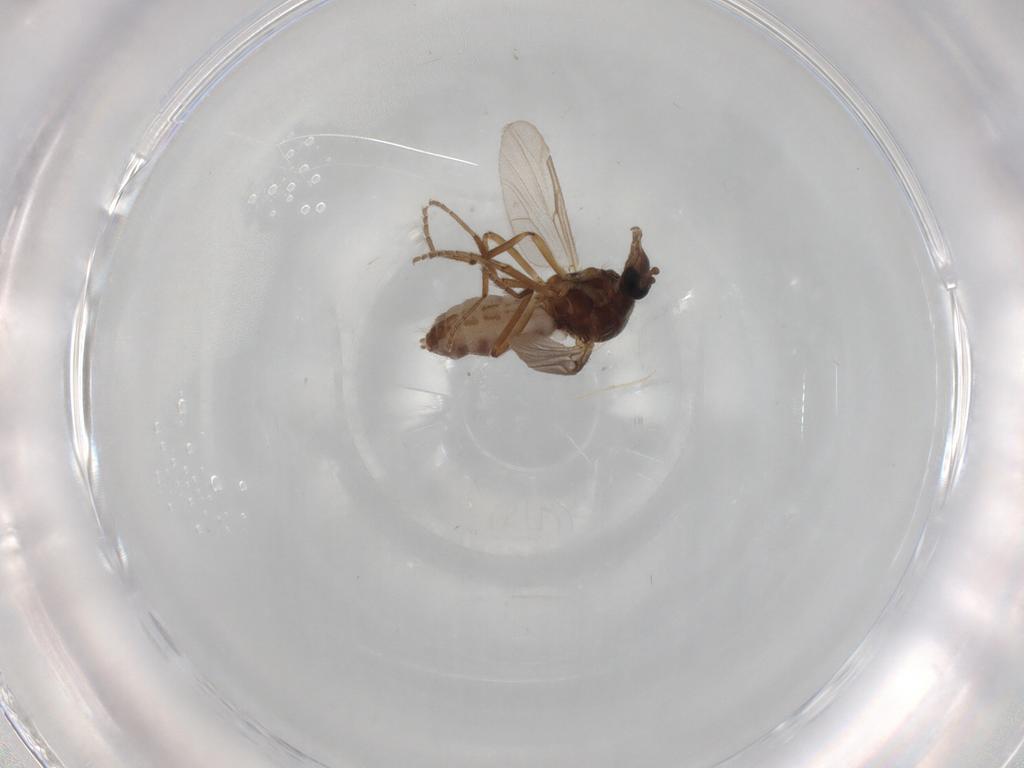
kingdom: Animalia
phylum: Arthropoda
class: Insecta
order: Diptera
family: Ceratopogonidae
